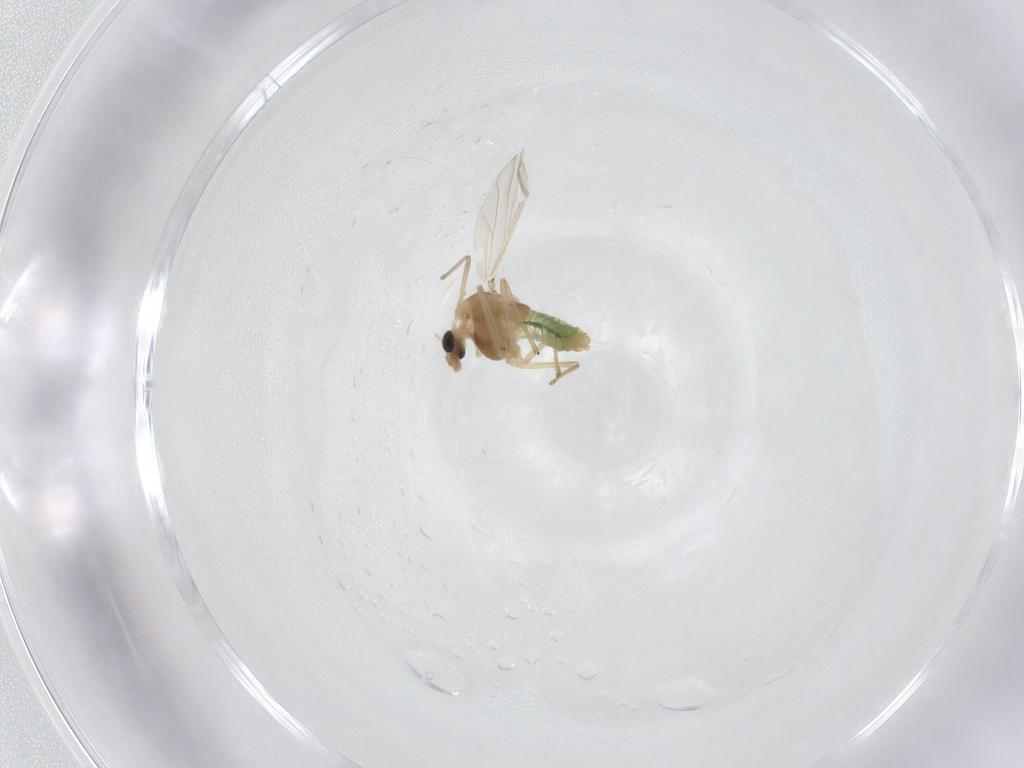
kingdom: Animalia
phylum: Arthropoda
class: Insecta
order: Diptera
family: Chironomidae
